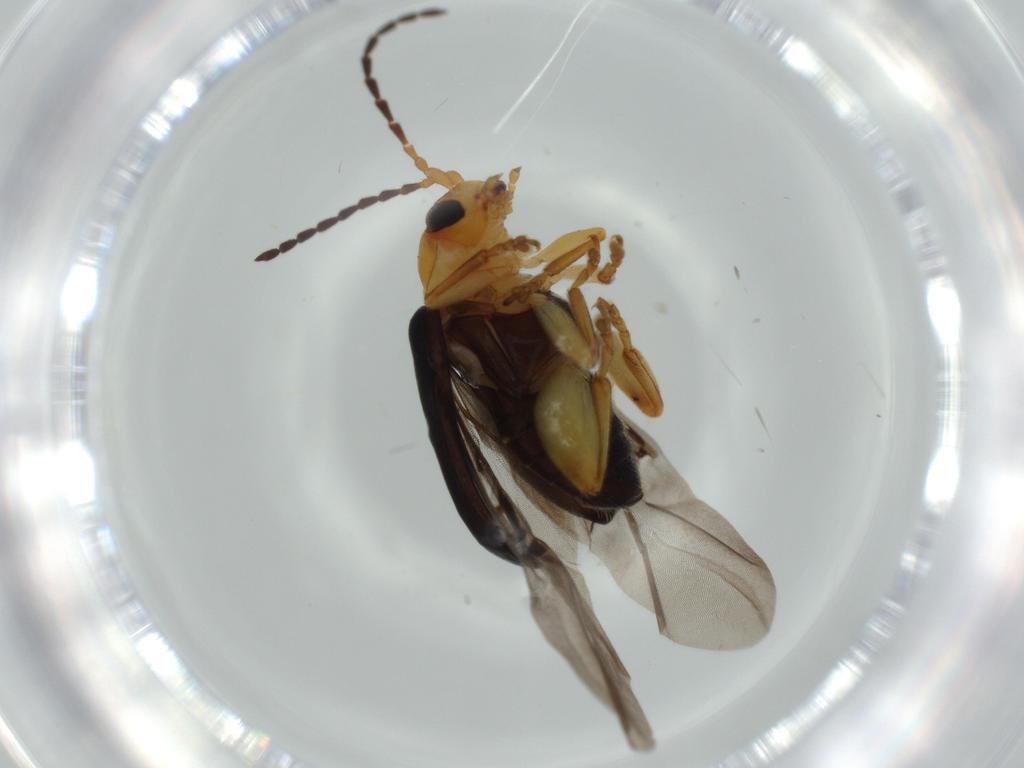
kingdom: Animalia
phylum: Arthropoda
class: Insecta
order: Coleoptera
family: Chrysomelidae
